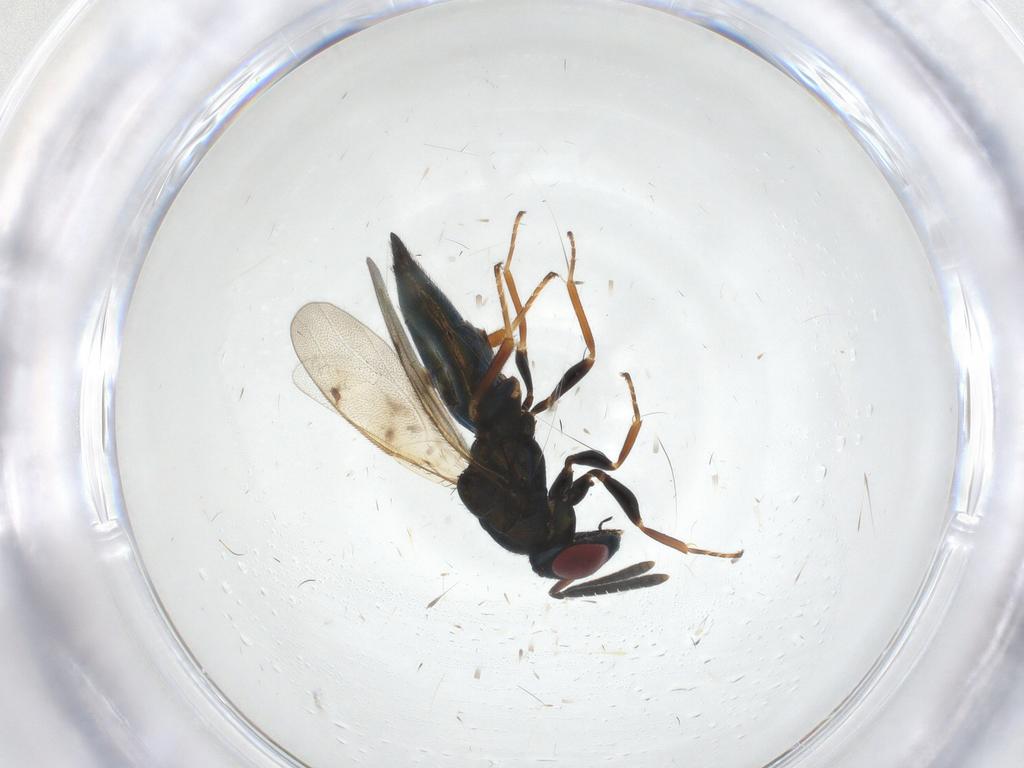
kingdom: Animalia
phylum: Arthropoda
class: Insecta
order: Hymenoptera
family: Pteromalidae
